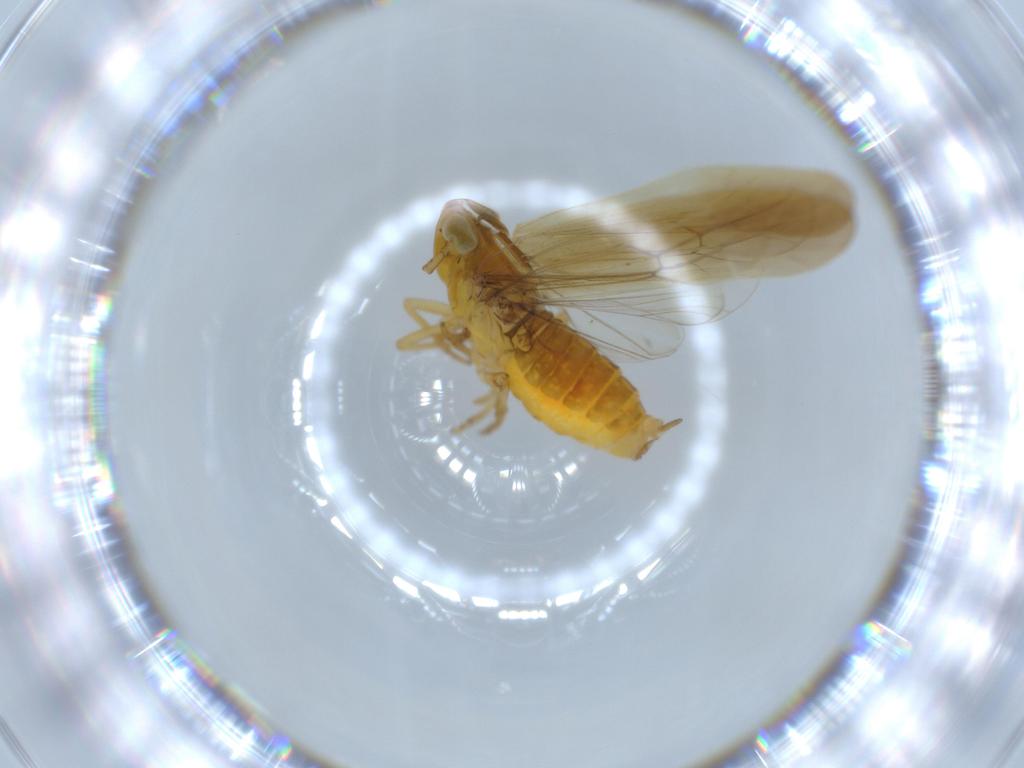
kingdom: Animalia
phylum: Arthropoda
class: Insecta
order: Hemiptera
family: Delphacidae
